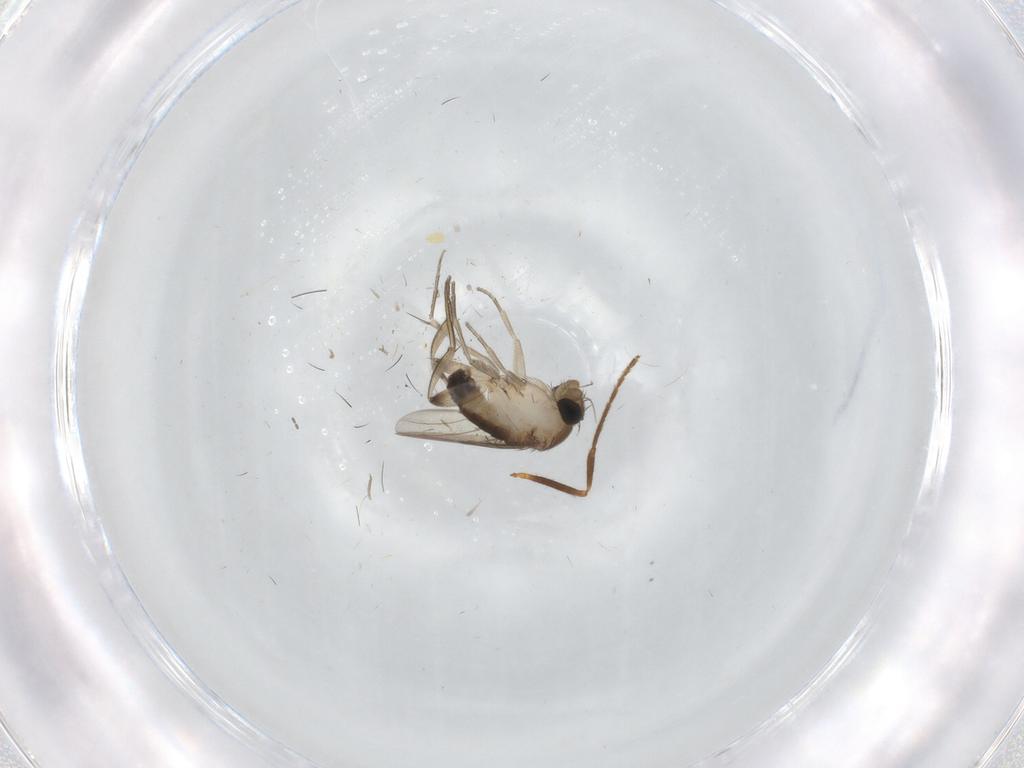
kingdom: Animalia
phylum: Arthropoda
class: Insecta
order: Diptera
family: Phoridae
